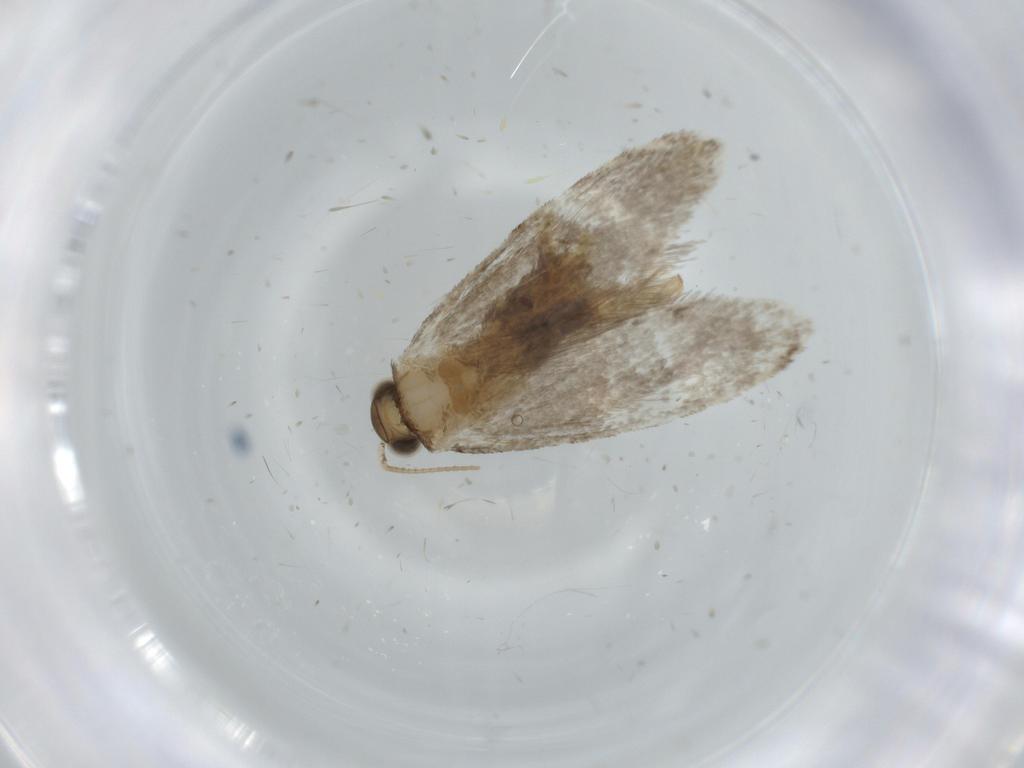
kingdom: Animalia
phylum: Arthropoda
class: Insecta
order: Lepidoptera
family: Tineidae
